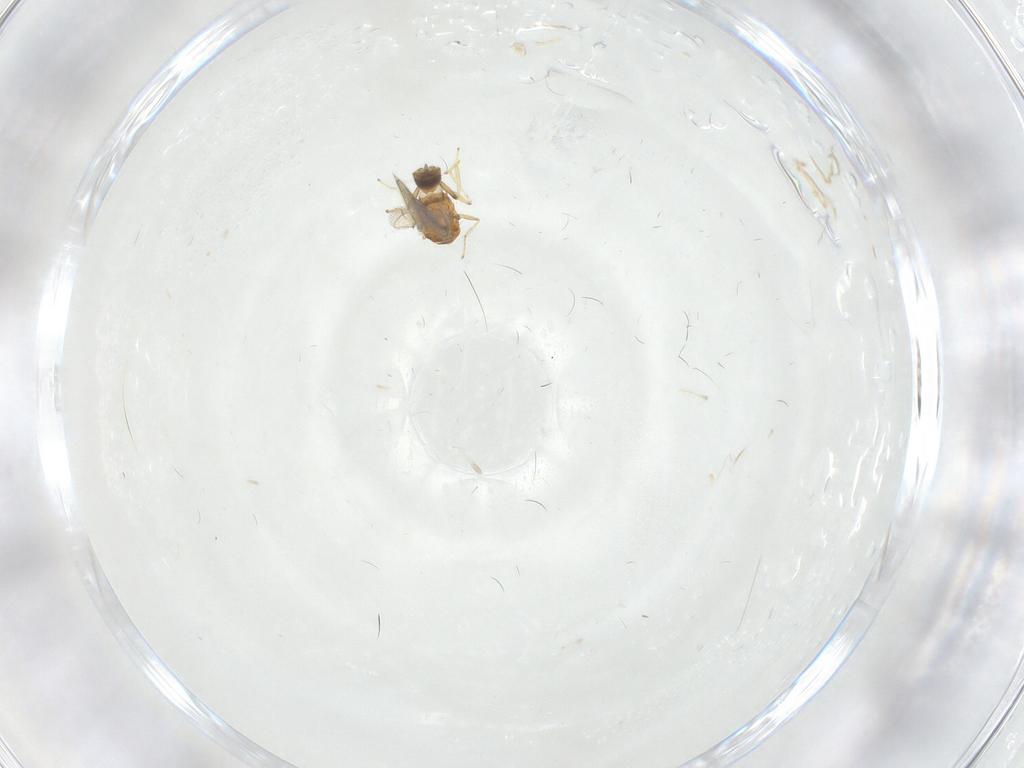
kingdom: Animalia
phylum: Arthropoda
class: Insecta
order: Hymenoptera
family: Eulophidae
